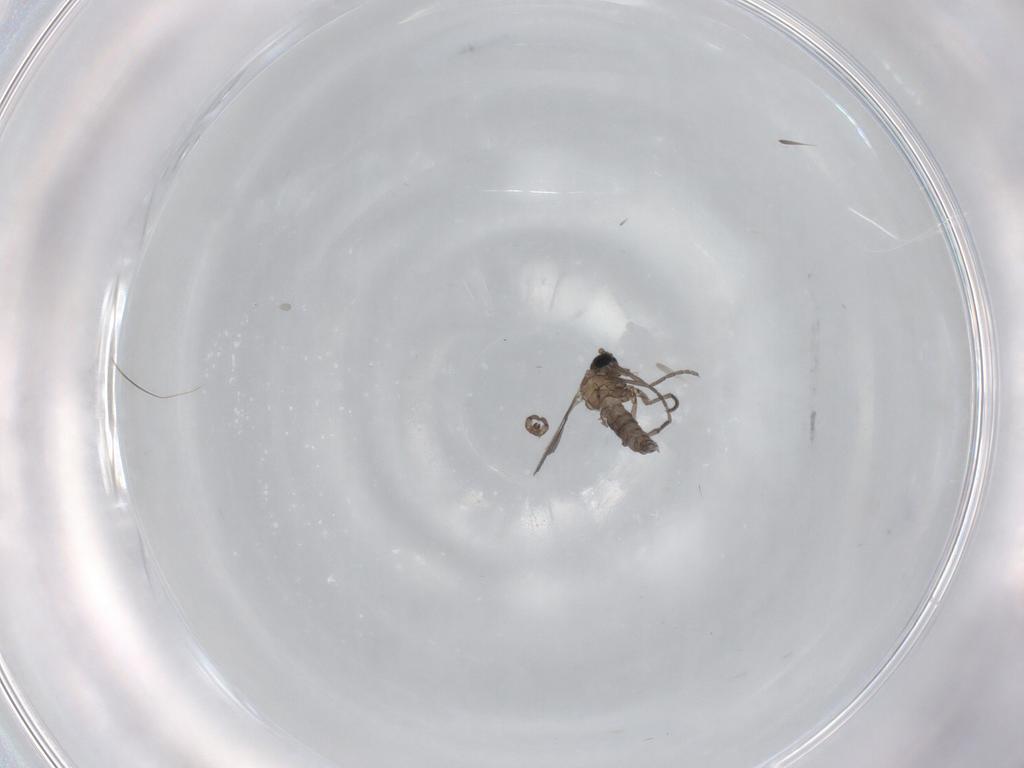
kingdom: Animalia
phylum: Arthropoda
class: Insecta
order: Diptera
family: Sciaridae
